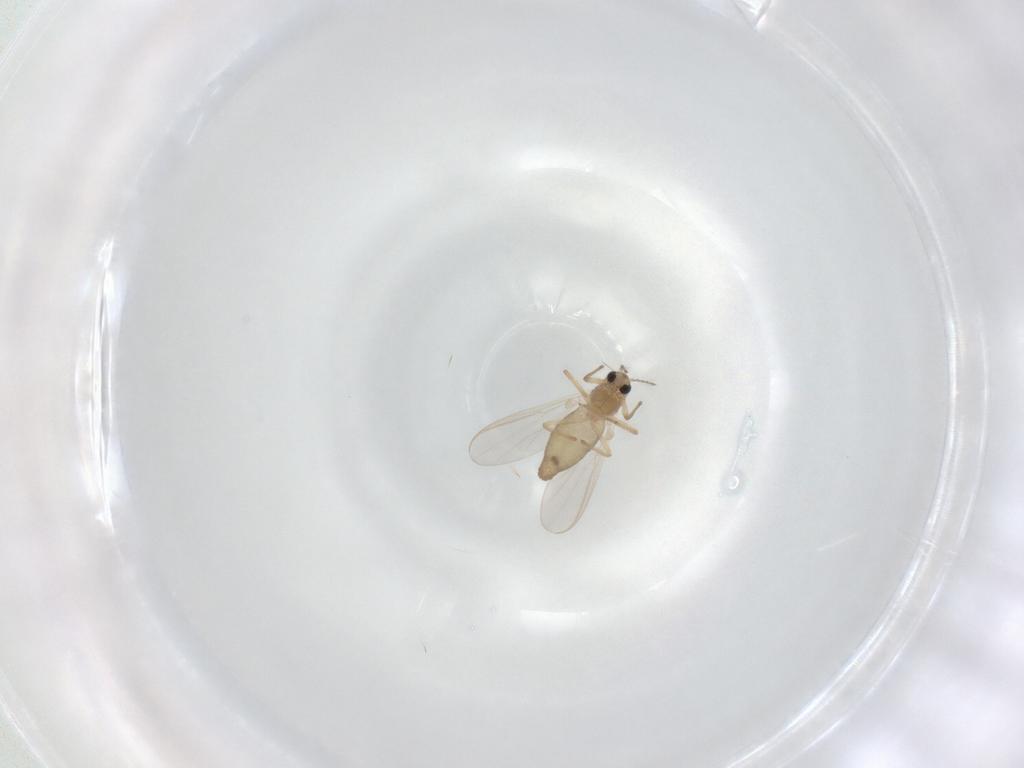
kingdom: Animalia
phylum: Arthropoda
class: Insecta
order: Diptera
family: Chironomidae
